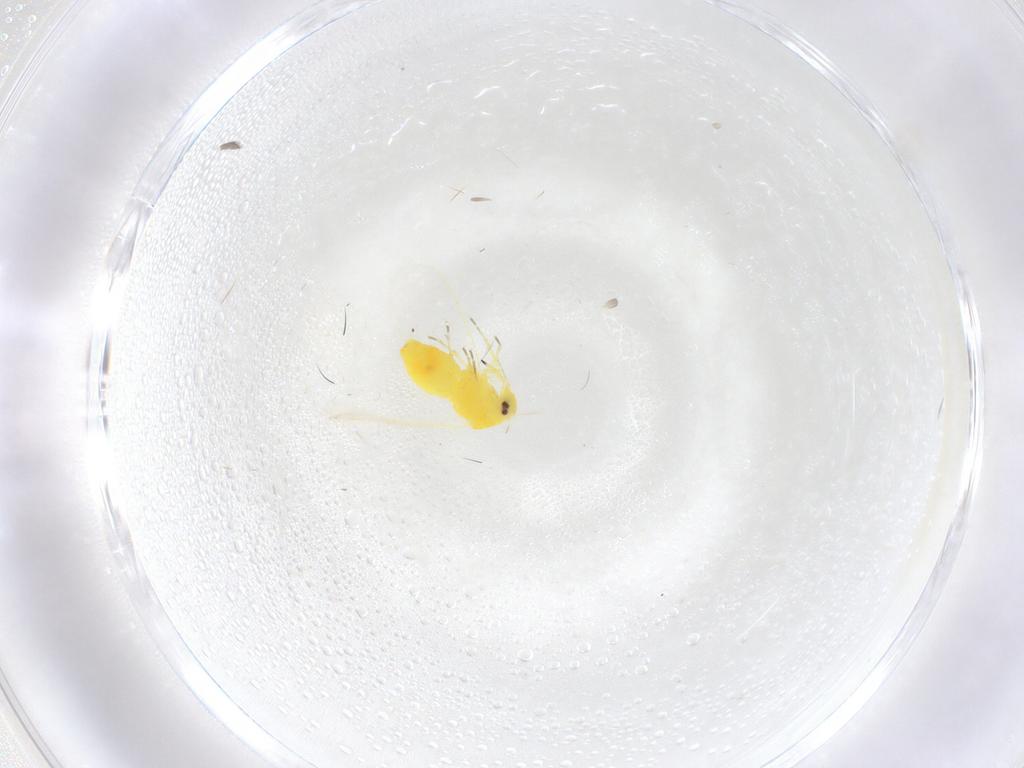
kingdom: Animalia
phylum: Arthropoda
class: Insecta
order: Hemiptera
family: Aleyrodidae
